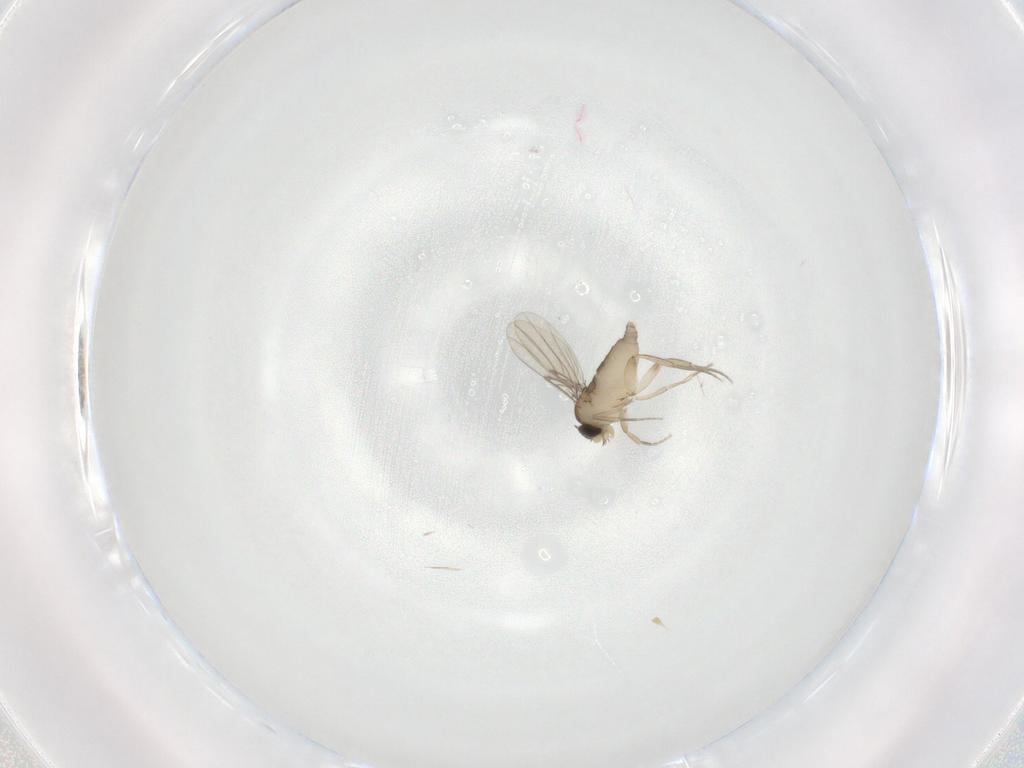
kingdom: Animalia
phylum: Arthropoda
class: Insecta
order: Diptera
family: Phoridae
